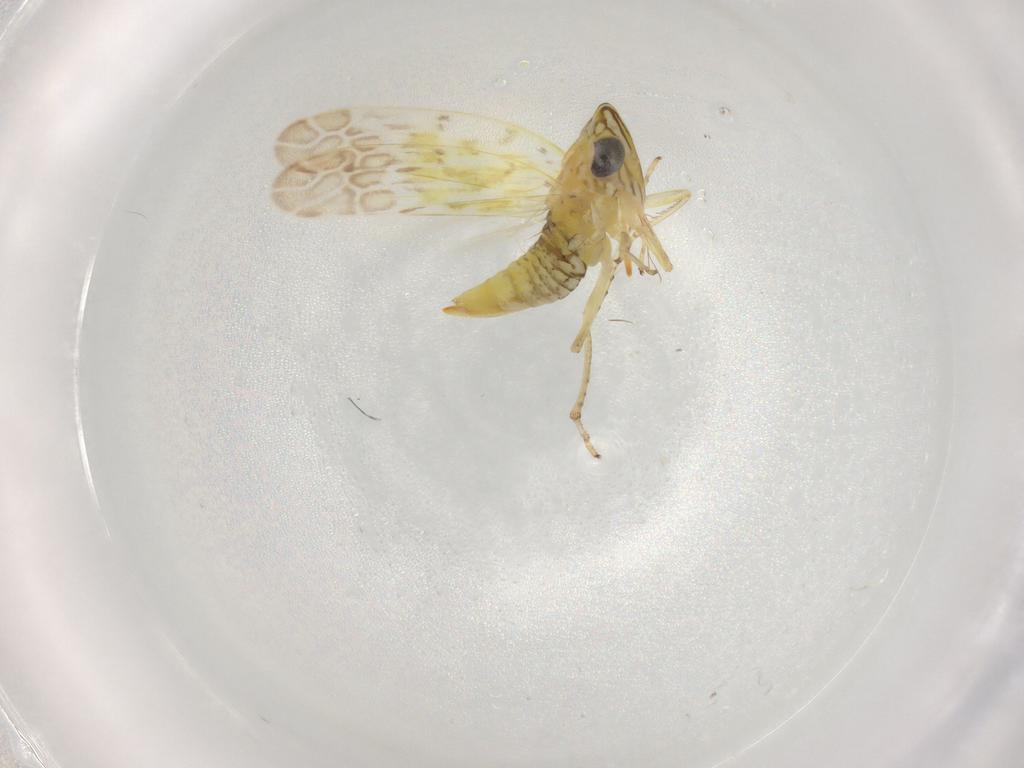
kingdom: Animalia
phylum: Arthropoda
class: Insecta
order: Hemiptera
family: Cicadellidae
